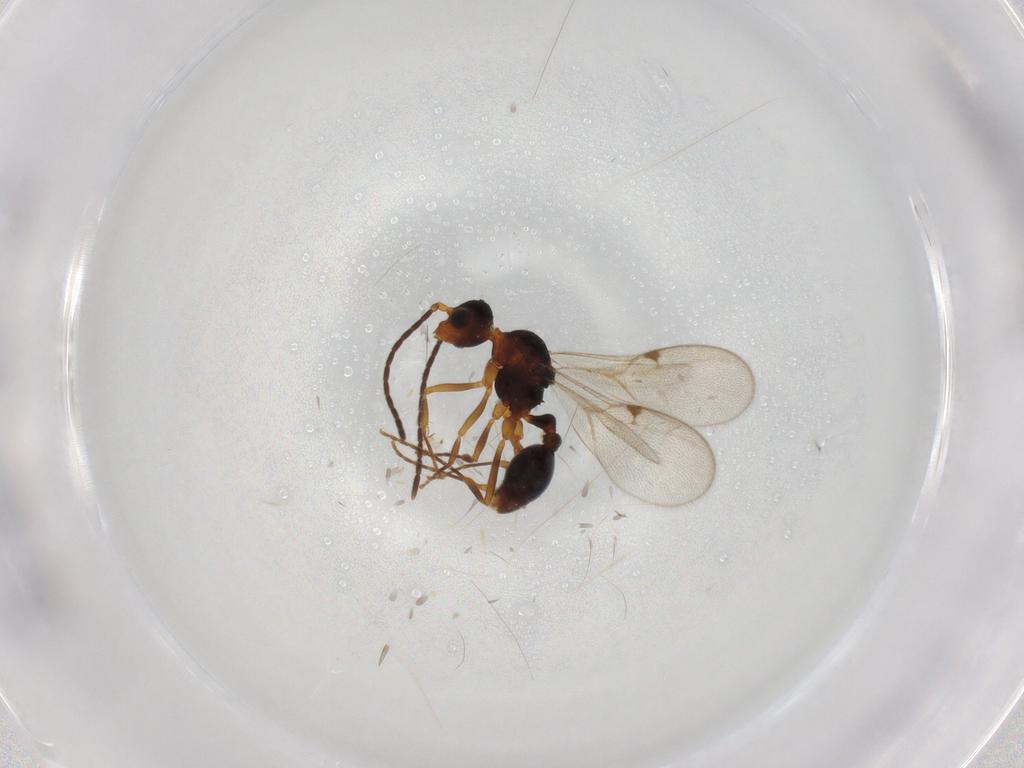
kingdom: Animalia
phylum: Arthropoda
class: Insecta
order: Hymenoptera
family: Formicidae
